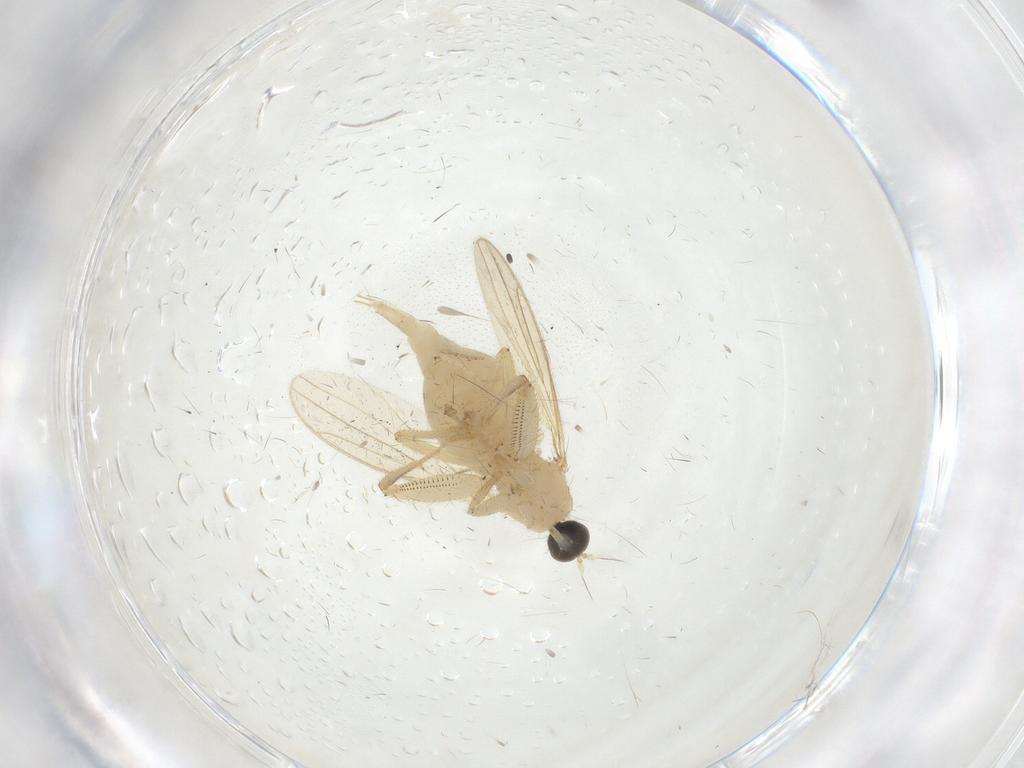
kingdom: Animalia
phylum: Arthropoda
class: Insecta
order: Diptera
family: Hybotidae
